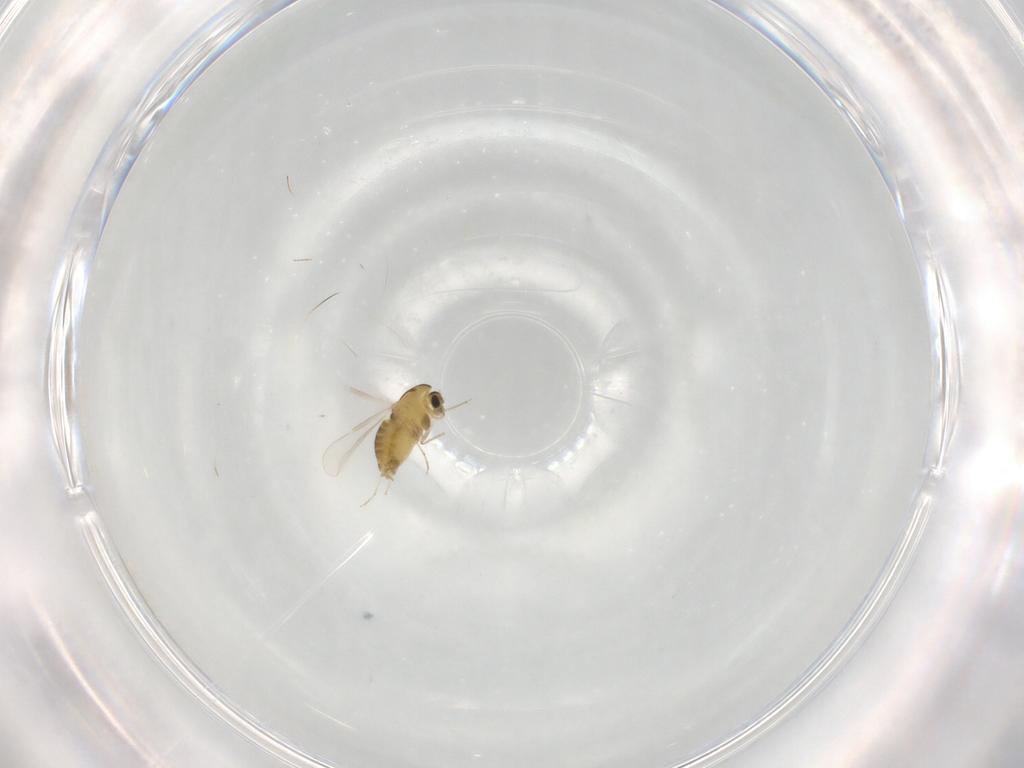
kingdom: Animalia
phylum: Arthropoda
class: Insecta
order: Diptera
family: Chironomidae
